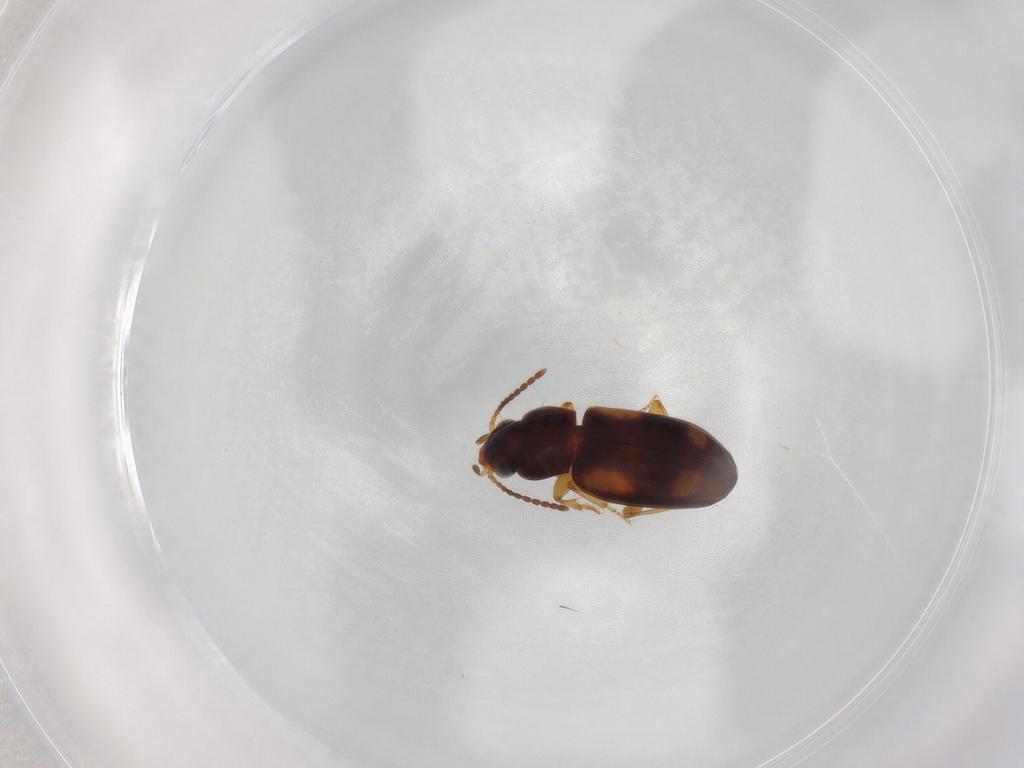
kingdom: Animalia
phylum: Arthropoda
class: Insecta
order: Coleoptera
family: Carabidae
